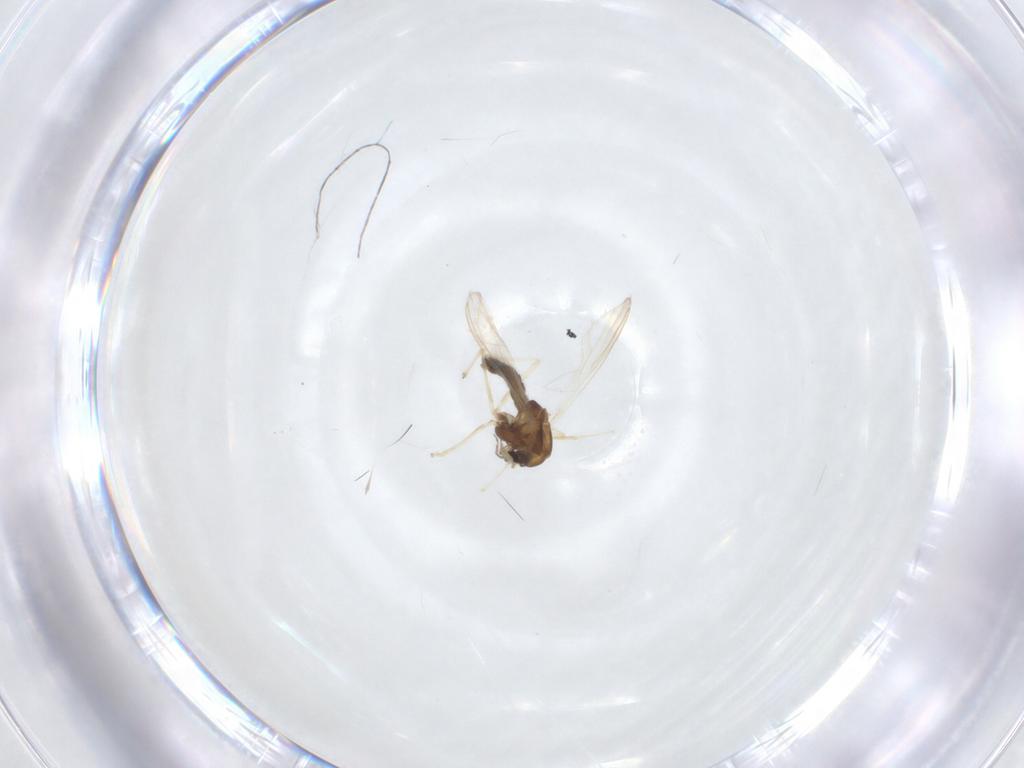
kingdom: Animalia
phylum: Arthropoda
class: Insecta
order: Diptera
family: Chironomidae
